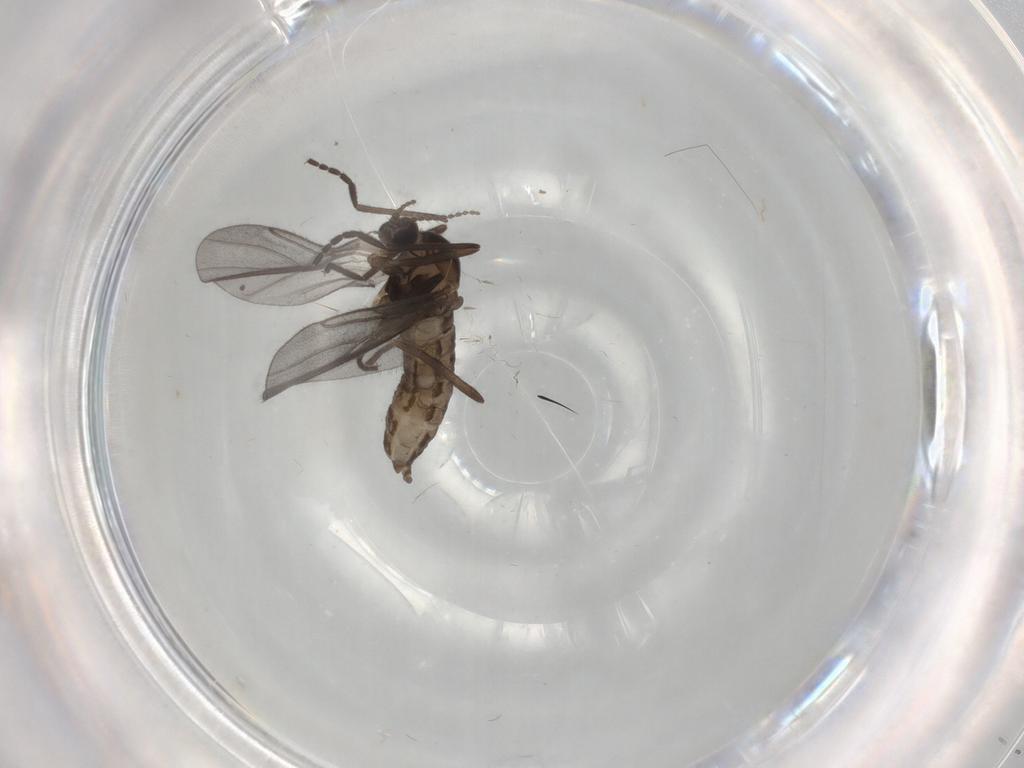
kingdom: Animalia
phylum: Arthropoda
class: Insecta
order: Diptera
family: Cecidomyiidae
